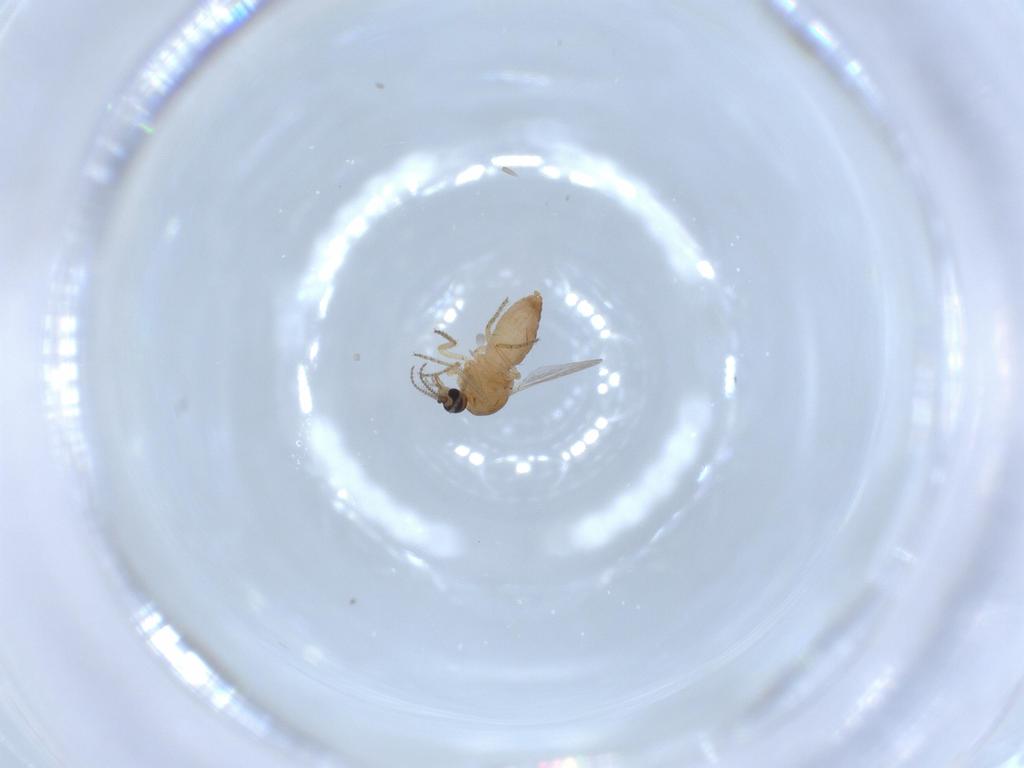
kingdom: Animalia
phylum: Arthropoda
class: Insecta
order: Diptera
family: Ceratopogonidae
